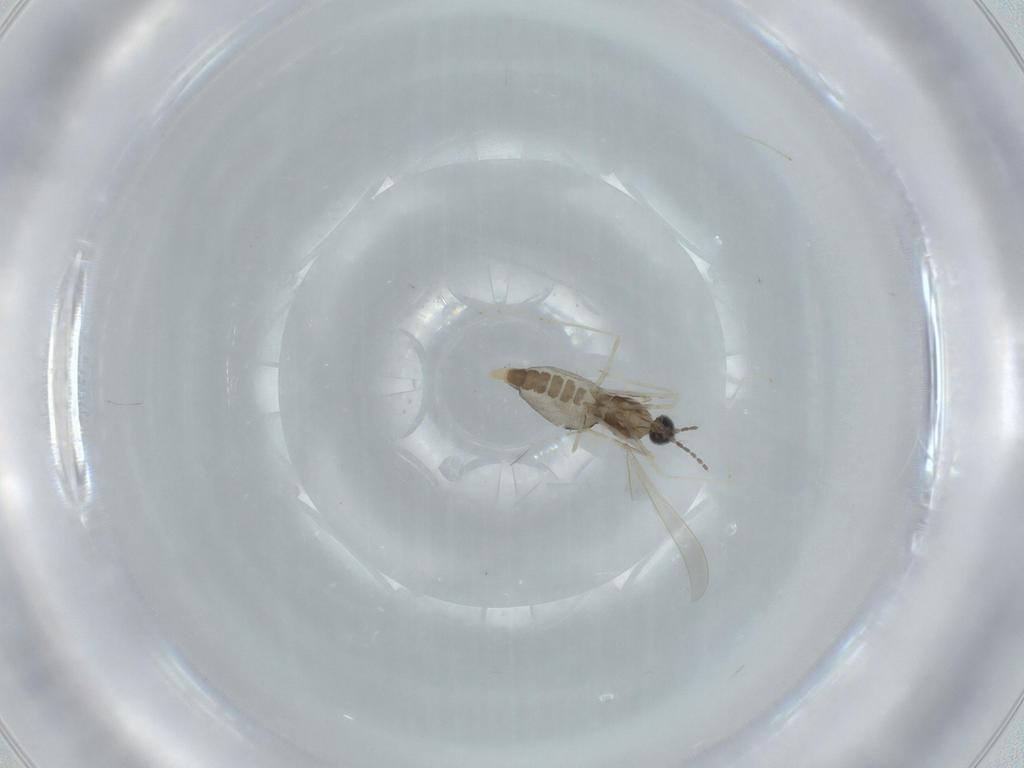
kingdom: Animalia
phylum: Arthropoda
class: Insecta
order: Diptera
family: Cecidomyiidae
